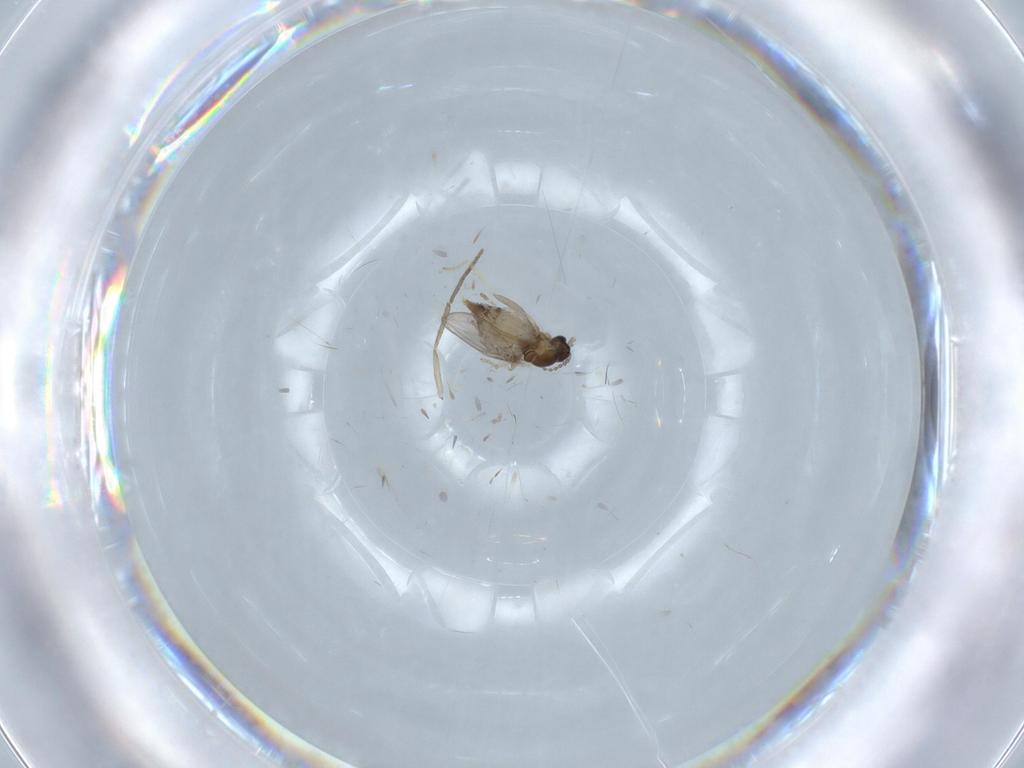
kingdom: Animalia
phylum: Arthropoda
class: Insecta
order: Diptera
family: Cecidomyiidae
